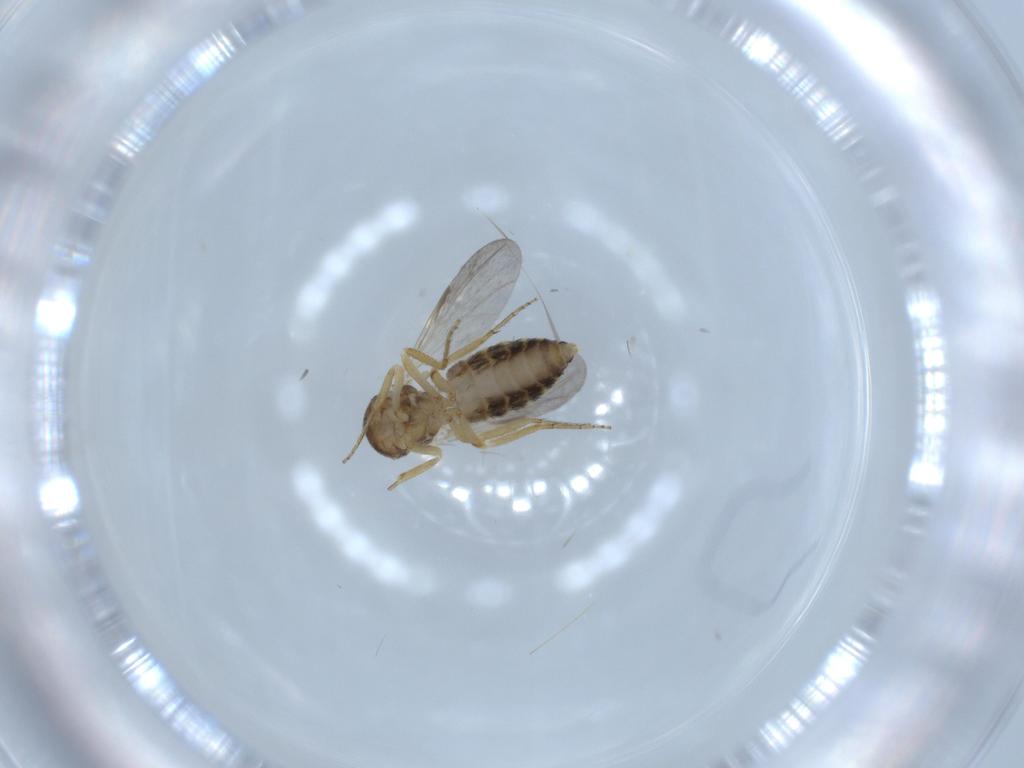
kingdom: Animalia
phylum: Arthropoda
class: Insecta
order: Diptera
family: Ceratopogonidae
